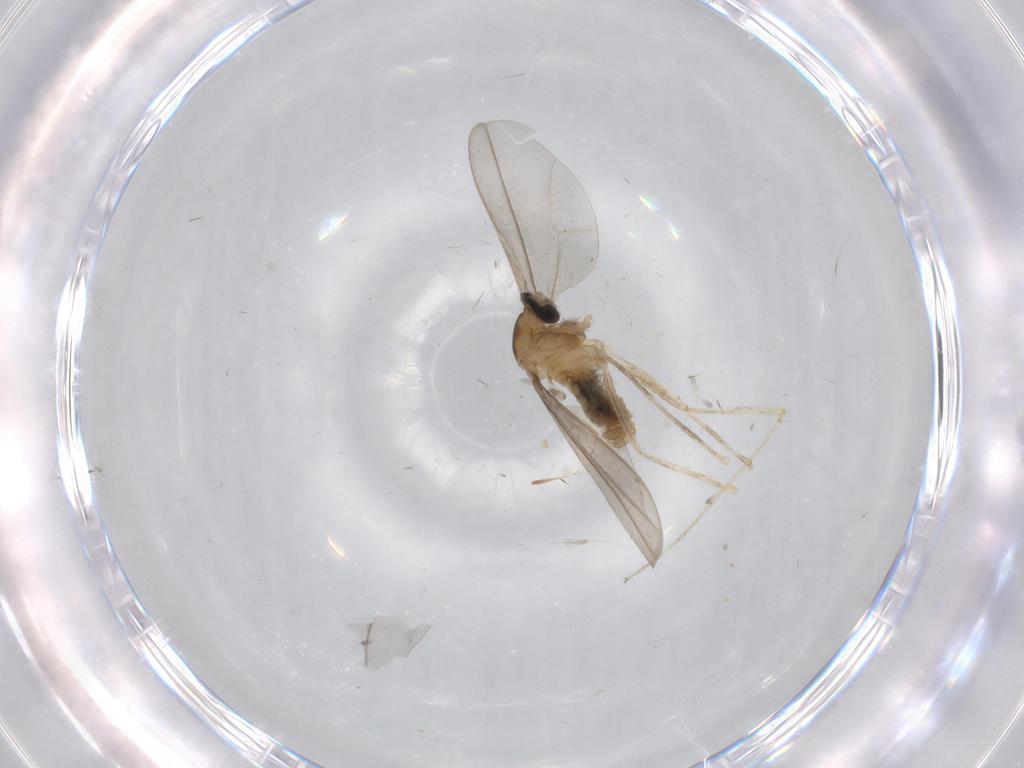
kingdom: Animalia
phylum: Arthropoda
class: Insecta
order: Diptera
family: Cecidomyiidae
